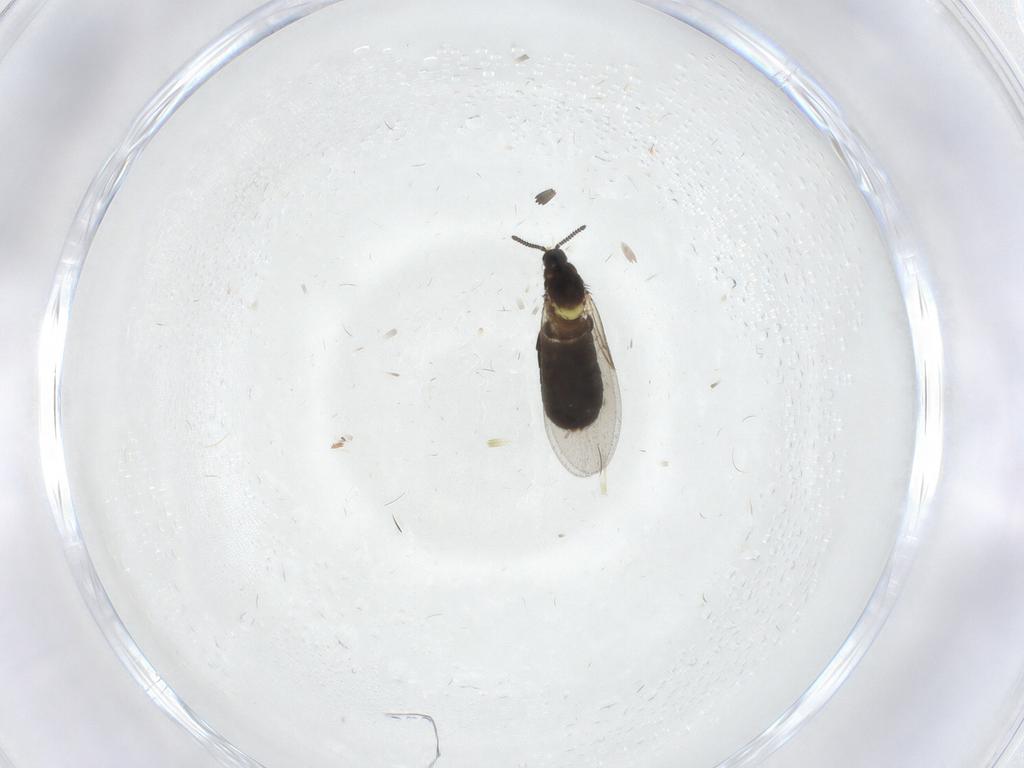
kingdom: Animalia
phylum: Arthropoda
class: Insecta
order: Diptera
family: Scatopsidae
